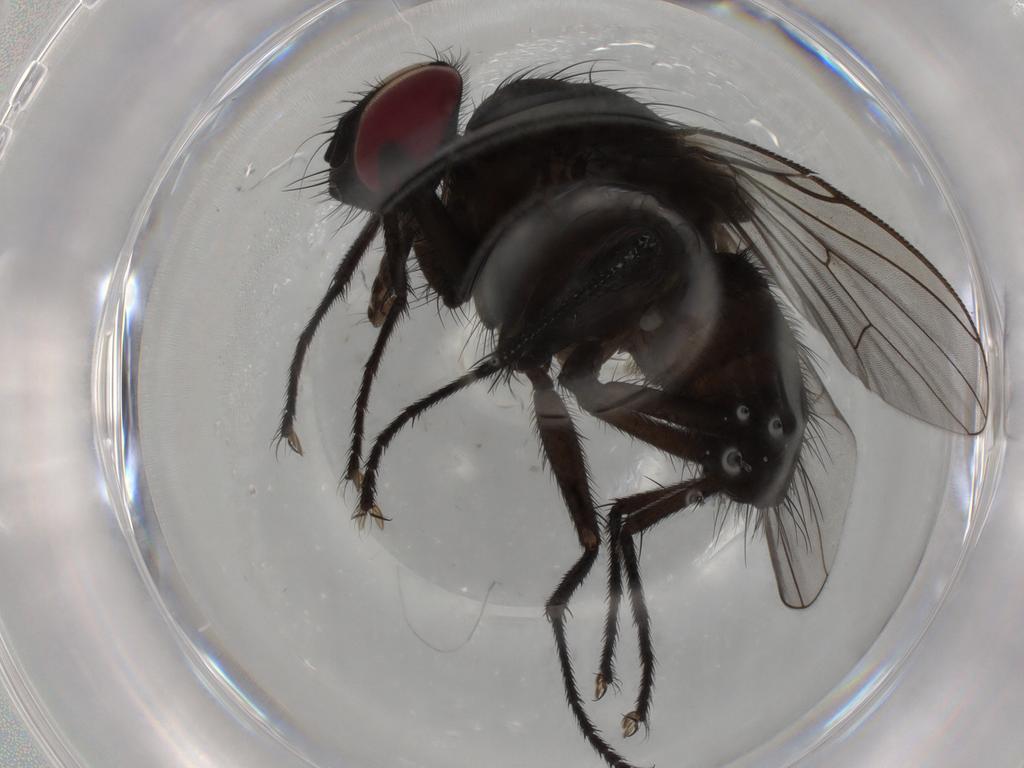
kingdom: Animalia
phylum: Arthropoda
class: Insecta
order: Diptera
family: Muscidae
